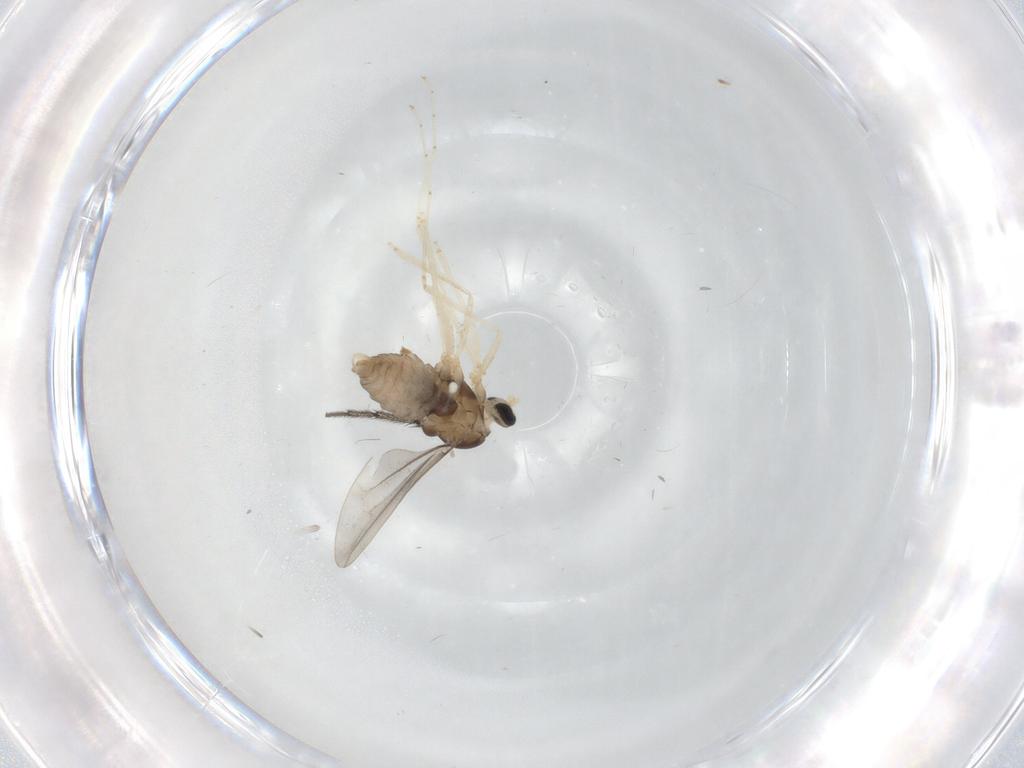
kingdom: Animalia
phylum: Arthropoda
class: Insecta
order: Diptera
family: Cecidomyiidae
